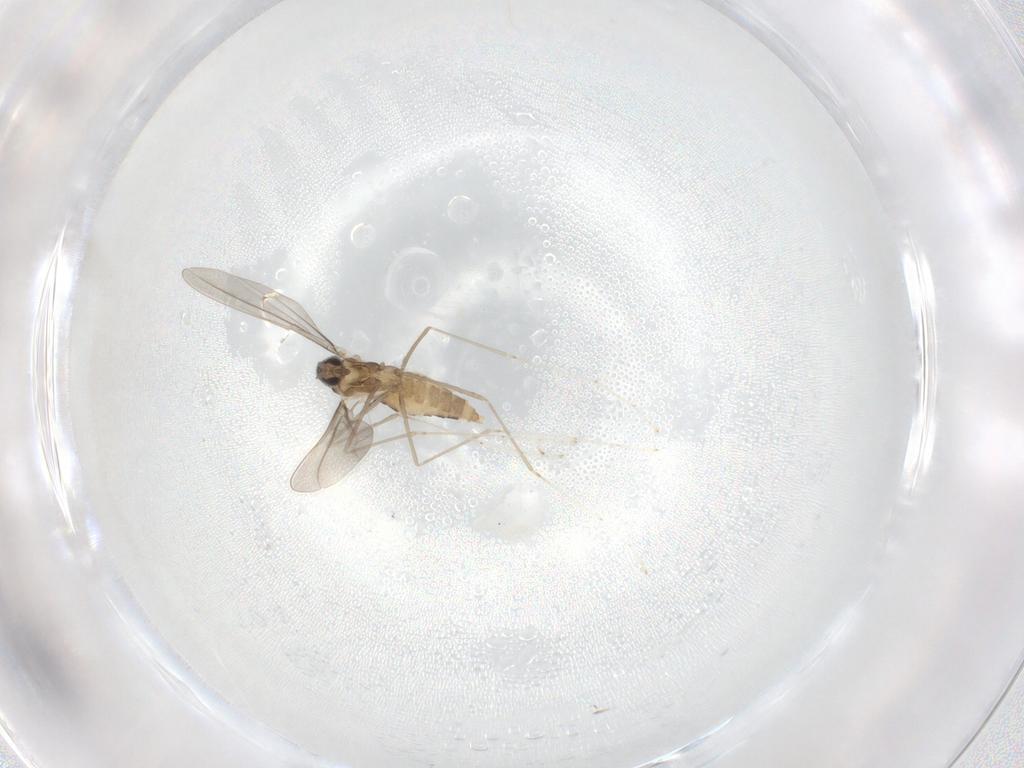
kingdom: Animalia
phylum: Arthropoda
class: Insecta
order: Diptera
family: Cecidomyiidae
